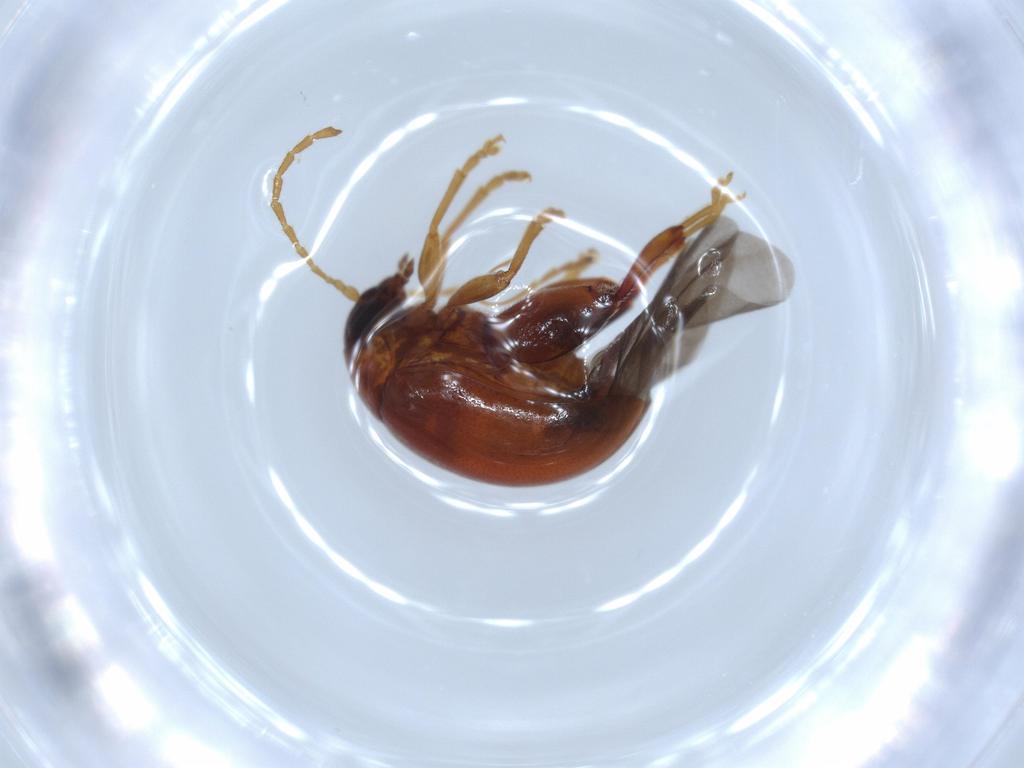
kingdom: Animalia
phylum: Arthropoda
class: Insecta
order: Coleoptera
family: Chrysomelidae
